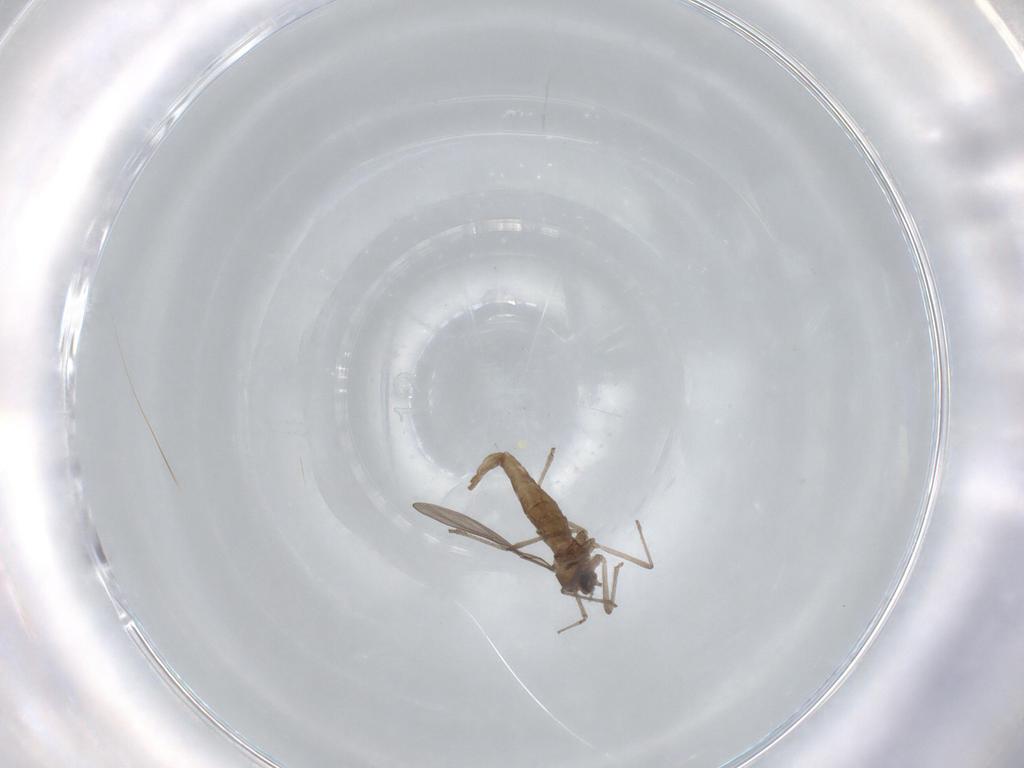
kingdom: Animalia
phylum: Arthropoda
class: Insecta
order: Diptera
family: Cecidomyiidae
